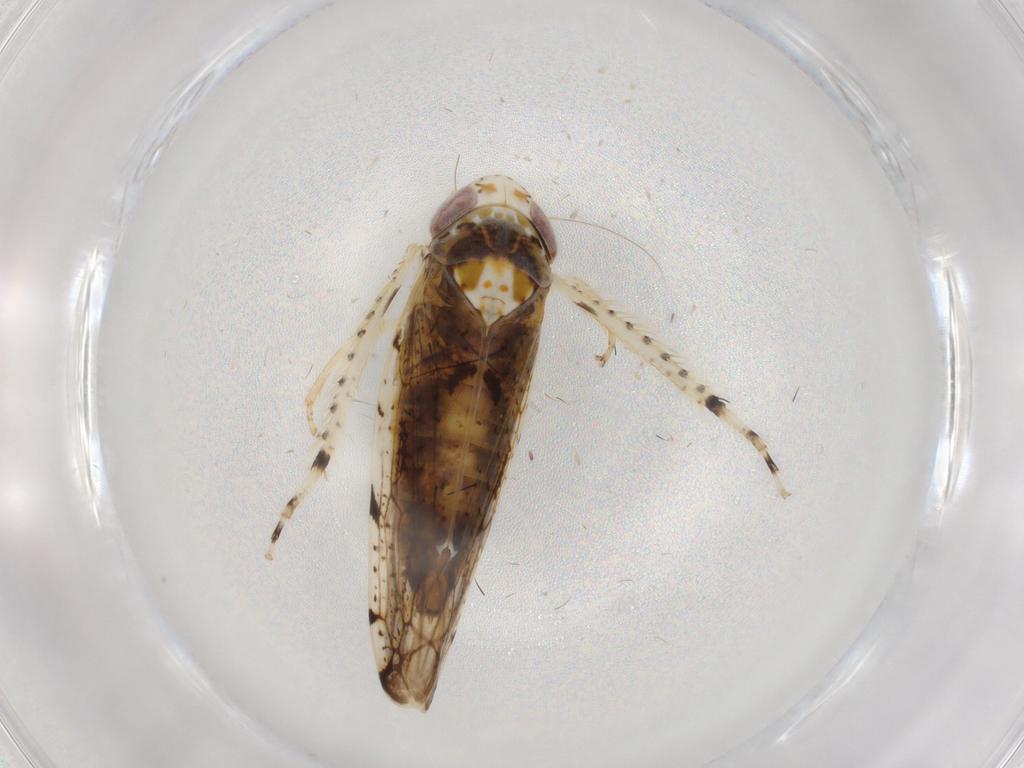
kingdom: Animalia
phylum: Arthropoda
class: Insecta
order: Hemiptera
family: Cicadellidae
